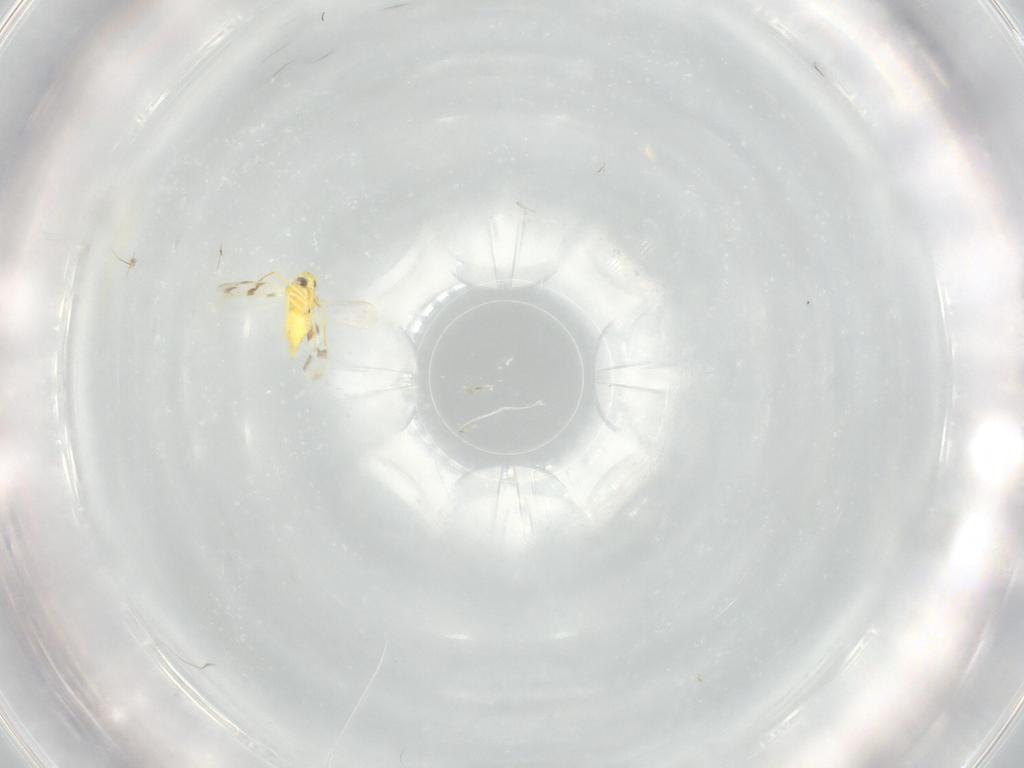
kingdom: Animalia
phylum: Arthropoda
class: Insecta
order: Hemiptera
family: Aleyrodidae
